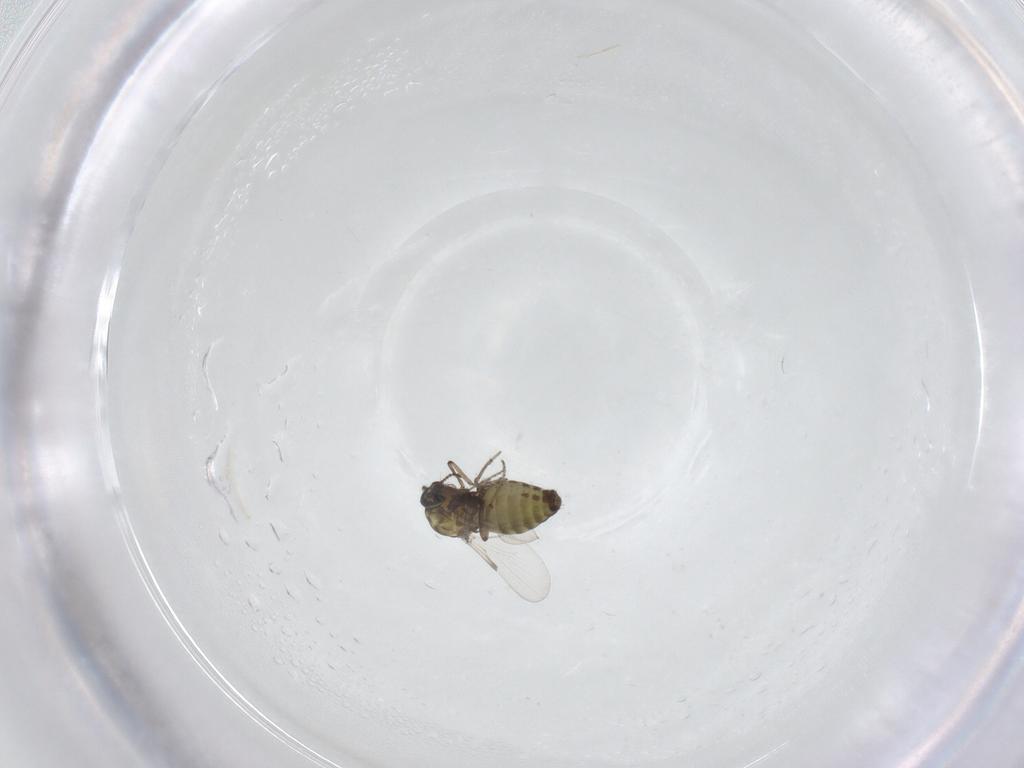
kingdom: Animalia
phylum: Arthropoda
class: Insecta
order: Diptera
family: Ceratopogonidae
